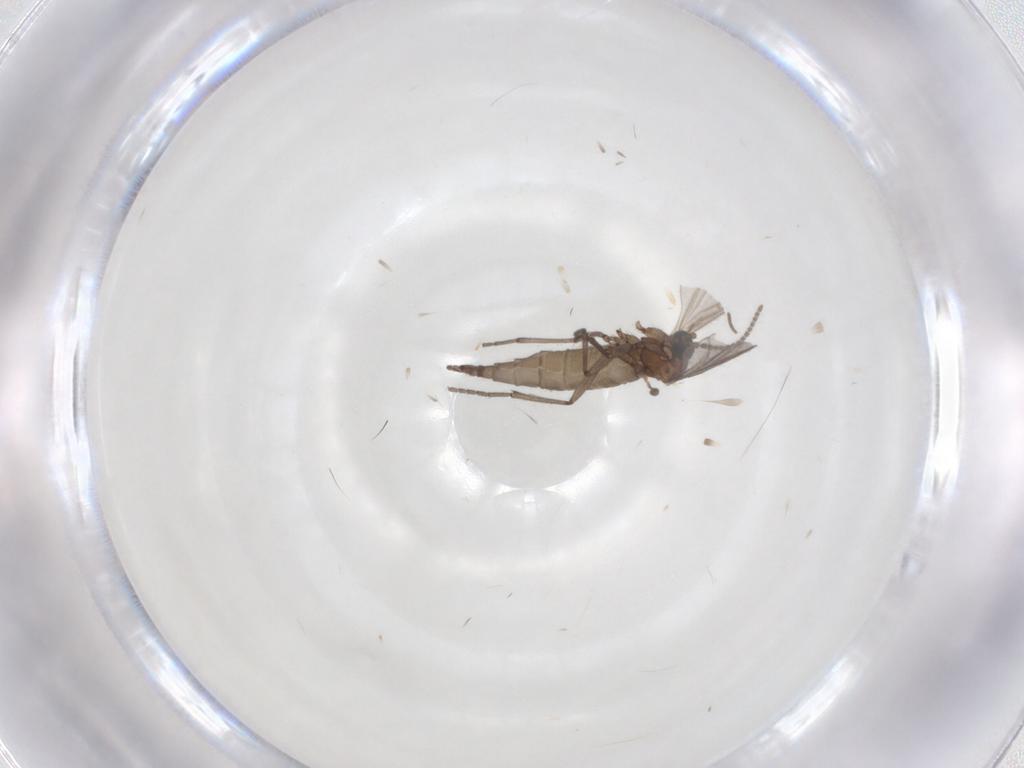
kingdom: Animalia
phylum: Arthropoda
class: Insecta
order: Diptera
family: Sciaridae
